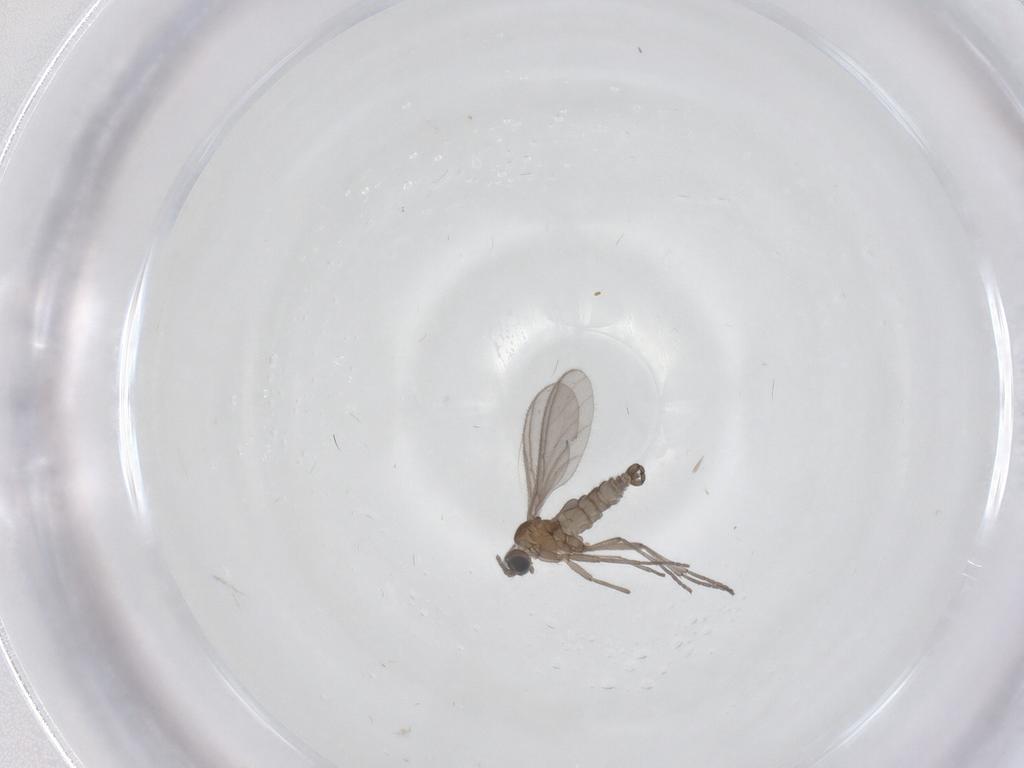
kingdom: Animalia
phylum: Arthropoda
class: Insecta
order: Diptera
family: Sciaridae
